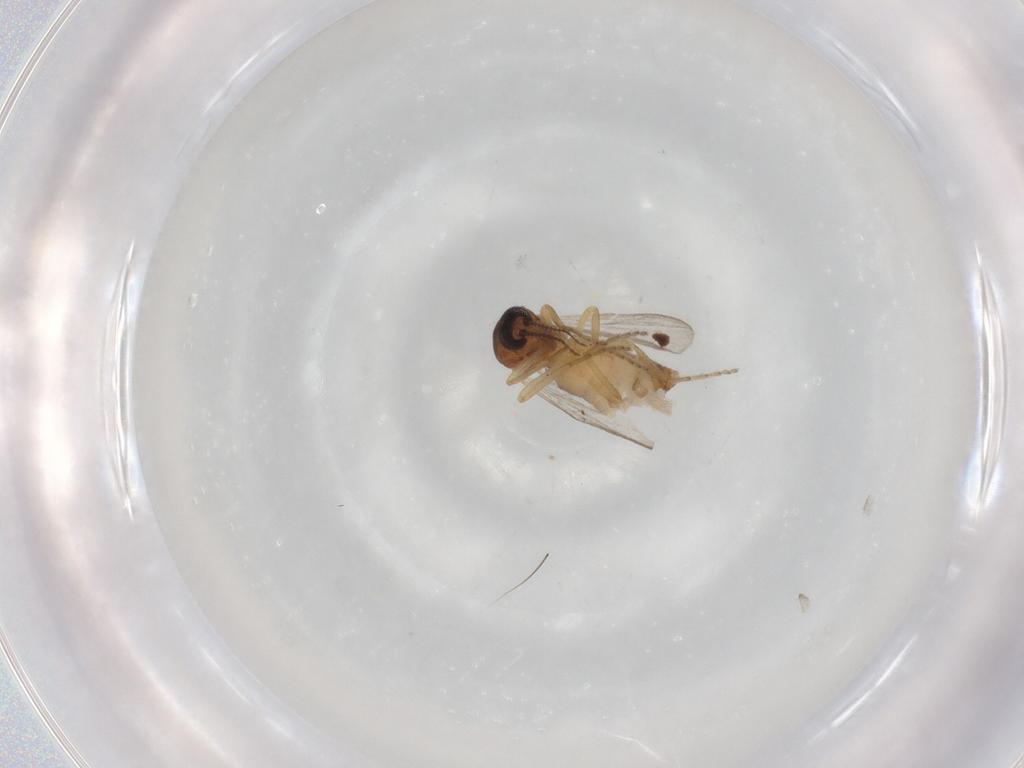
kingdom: Animalia
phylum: Arthropoda
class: Insecta
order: Diptera
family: Ceratopogonidae
